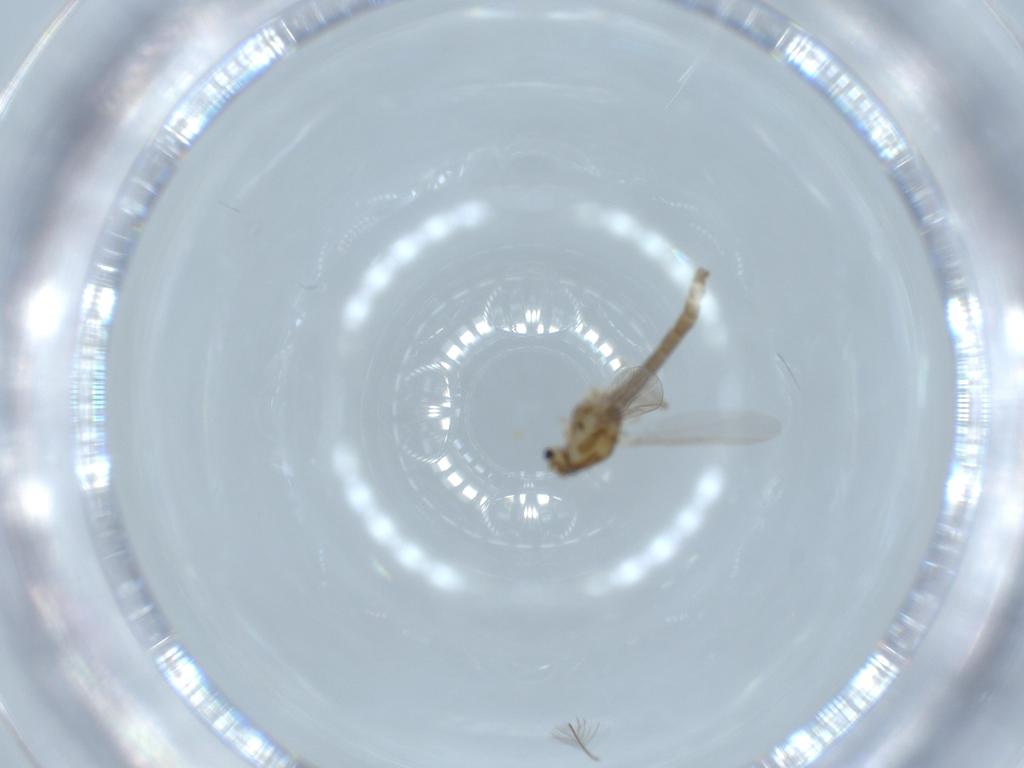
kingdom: Animalia
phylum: Arthropoda
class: Insecta
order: Diptera
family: Chironomidae
